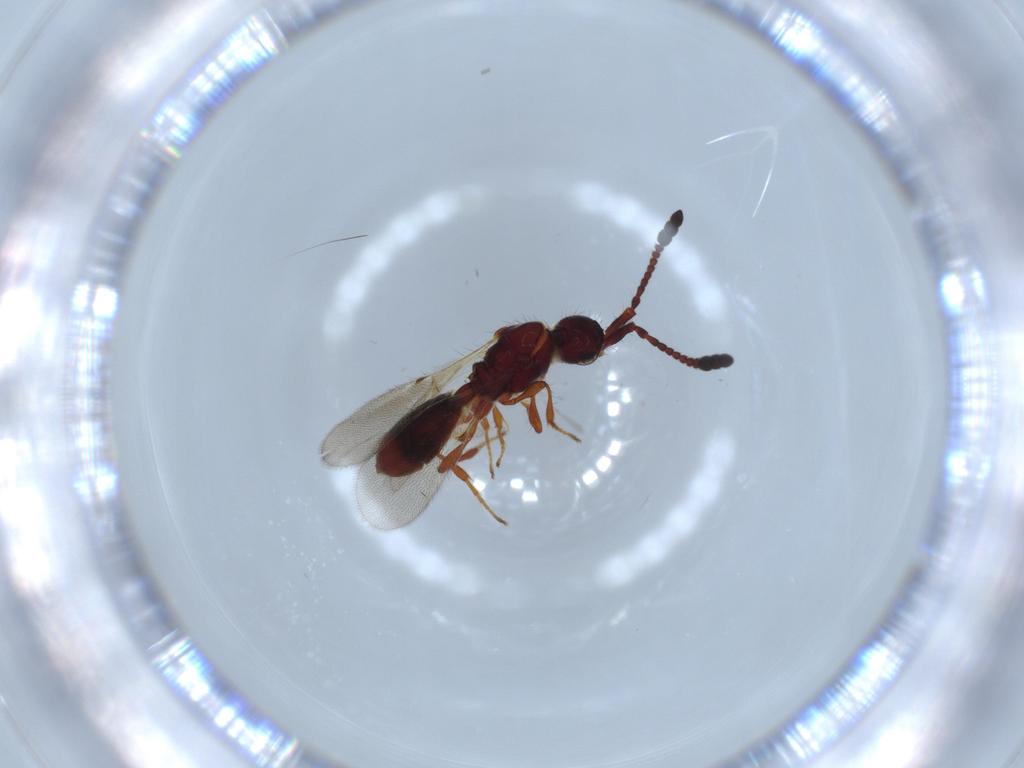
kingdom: Animalia
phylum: Arthropoda
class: Insecta
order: Hymenoptera
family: Diapriidae
